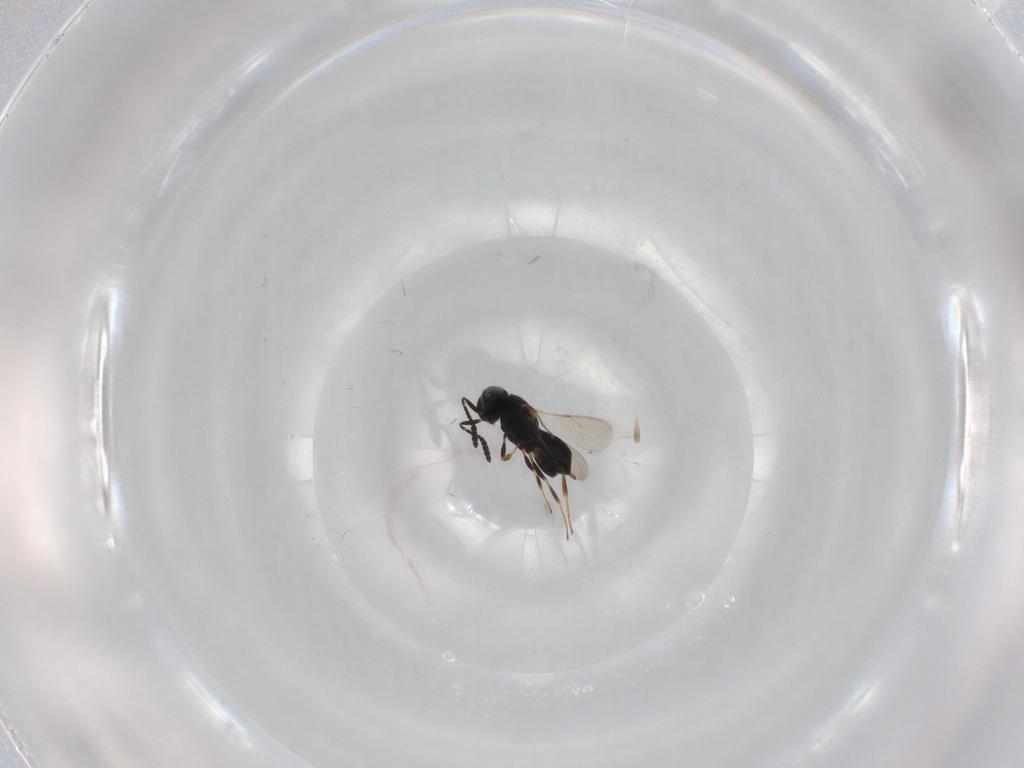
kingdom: Animalia
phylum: Arthropoda
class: Insecta
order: Hymenoptera
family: Scelionidae
